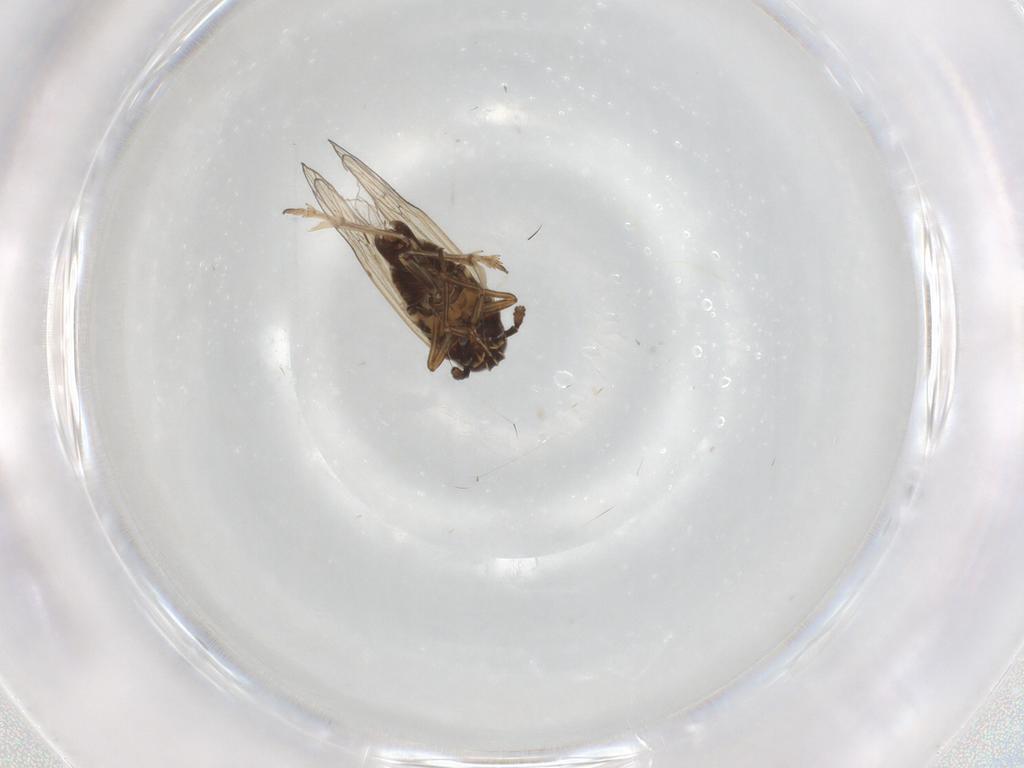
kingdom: Animalia
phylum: Arthropoda
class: Insecta
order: Hemiptera
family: Delphacidae
